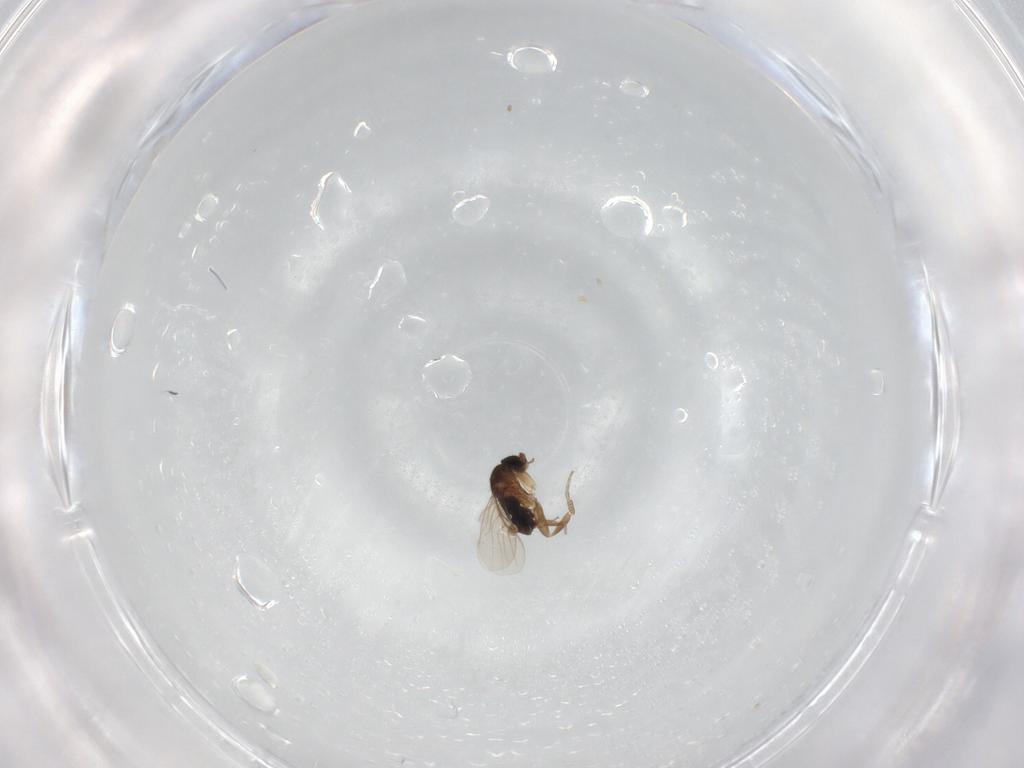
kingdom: Animalia
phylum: Arthropoda
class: Insecta
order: Diptera
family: Phoridae
